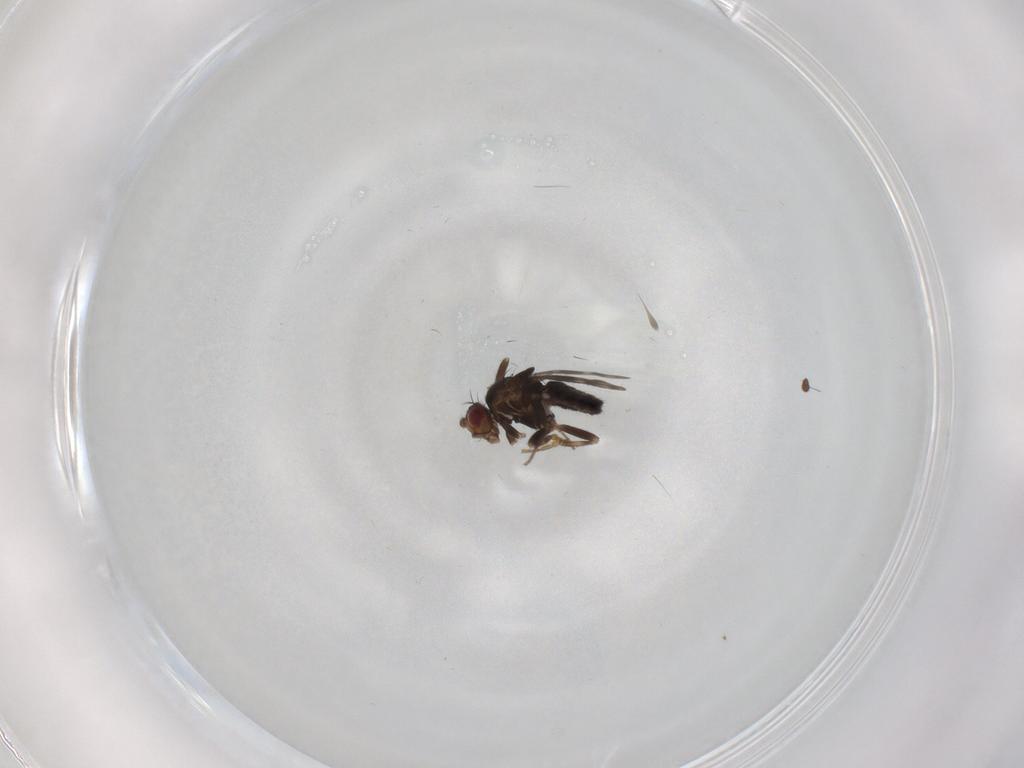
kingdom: Animalia
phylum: Arthropoda
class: Insecta
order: Diptera
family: Sphaeroceridae
